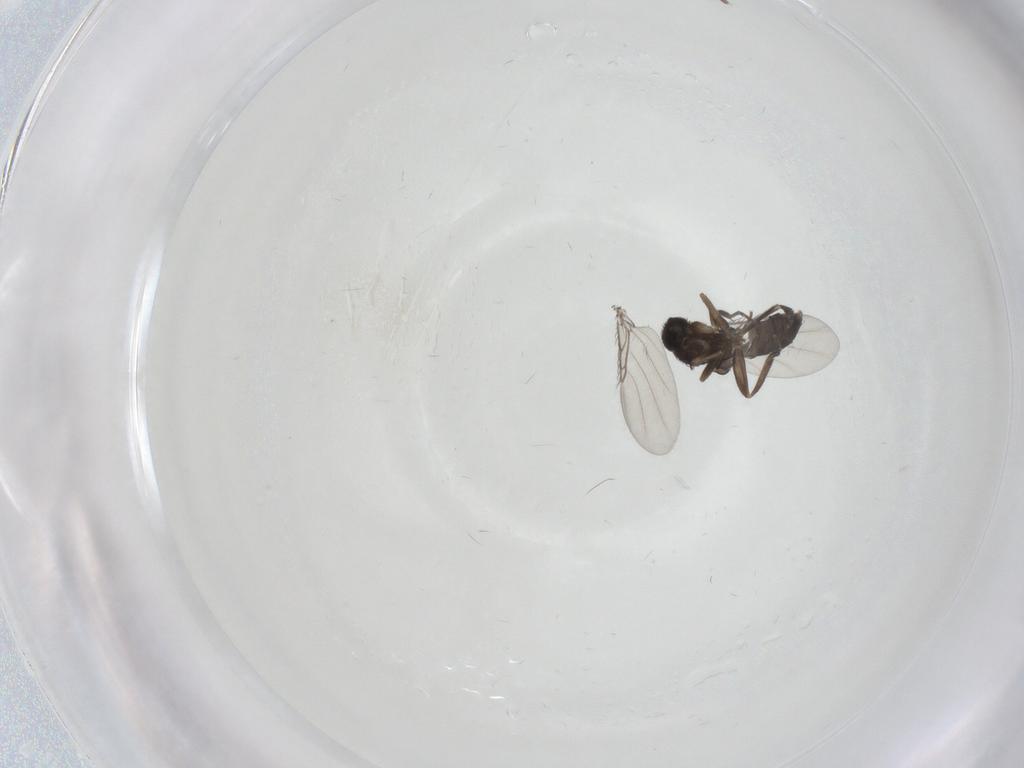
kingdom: Animalia
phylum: Arthropoda
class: Insecta
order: Diptera
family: Phoridae
